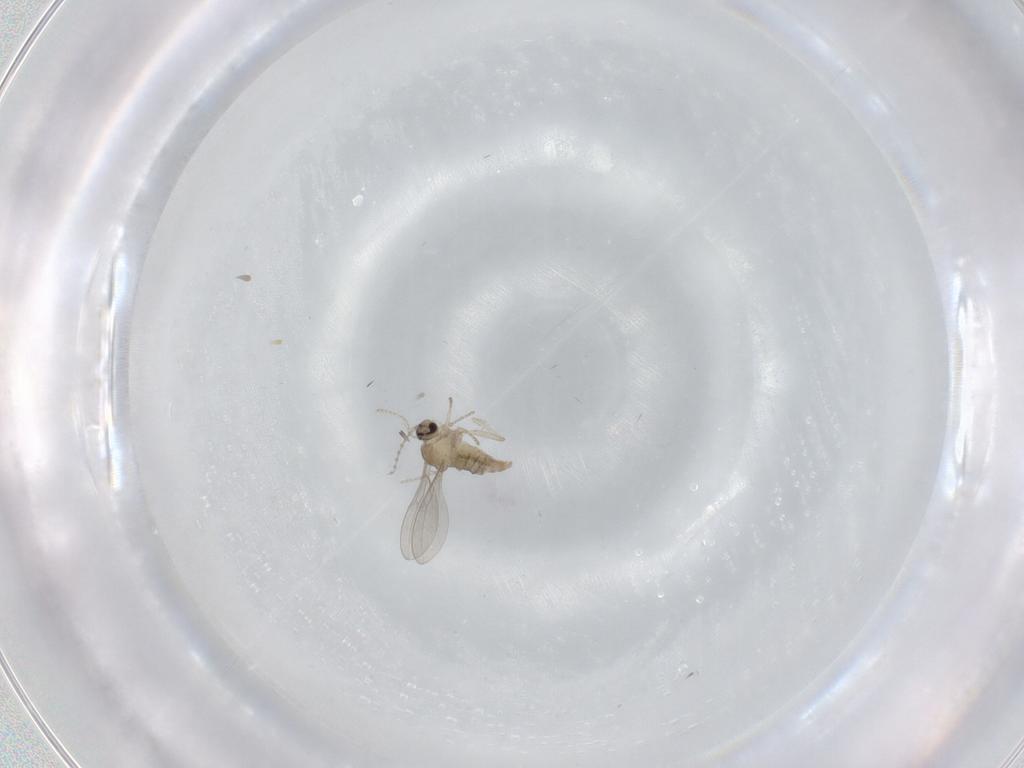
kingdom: Animalia
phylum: Arthropoda
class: Insecta
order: Diptera
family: Cecidomyiidae
